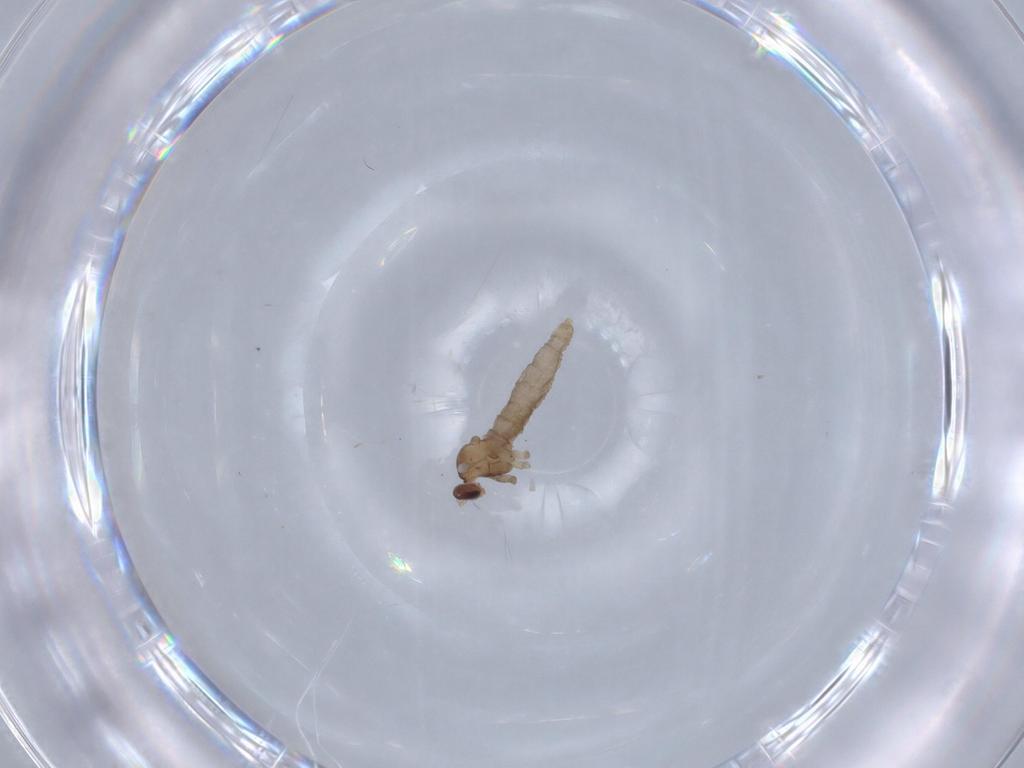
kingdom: Animalia
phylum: Arthropoda
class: Insecta
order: Diptera
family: Cecidomyiidae
